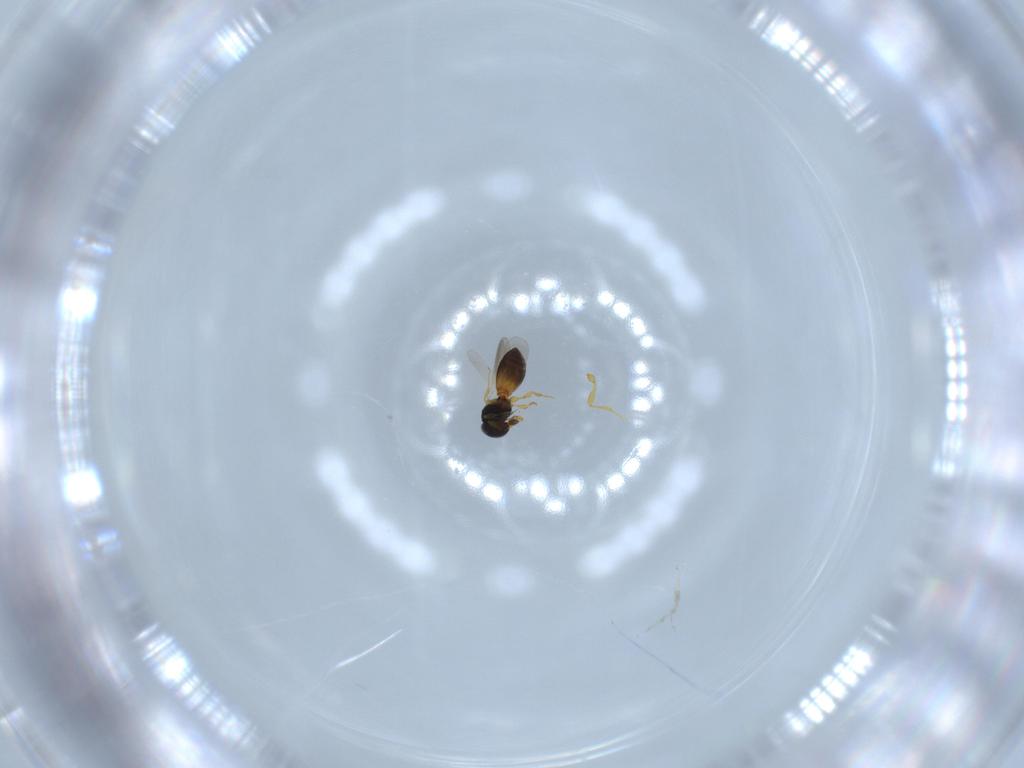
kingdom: Animalia
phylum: Arthropoda
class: Insecta
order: Hymenoptera
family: Platygastridae
